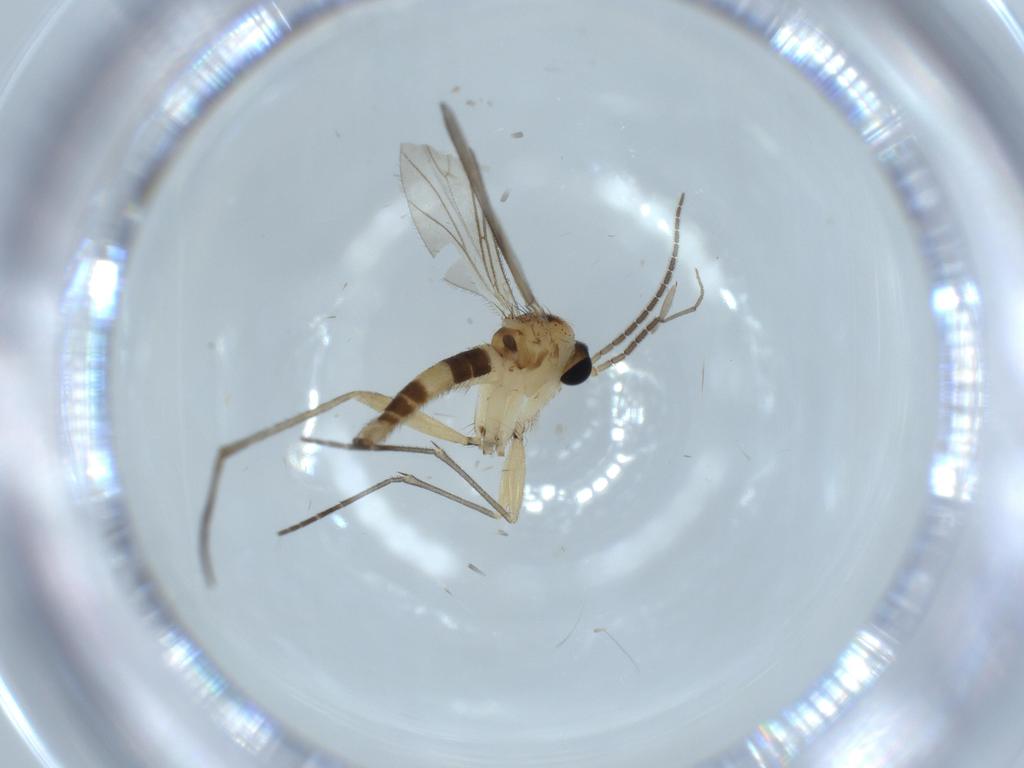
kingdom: Animalia
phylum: Arthropoda
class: Insecta
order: Diptera
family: Sciaridae
